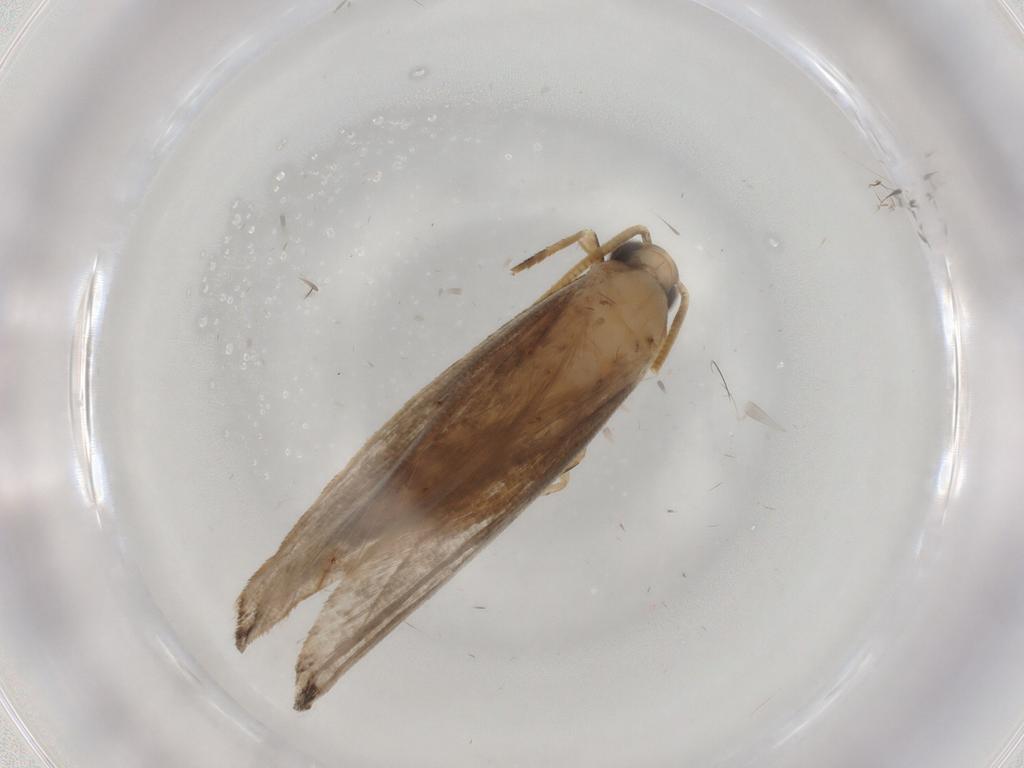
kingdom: Animalia
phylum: Arthropoda
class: Insecta
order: Lepidoptera
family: Tineidae
